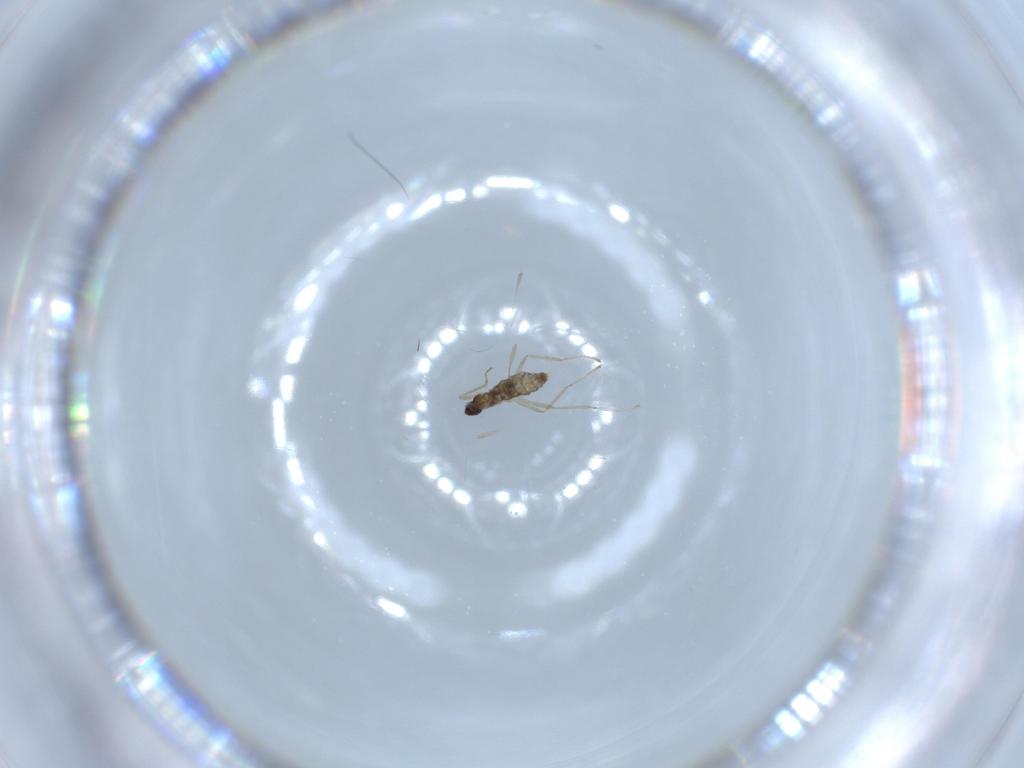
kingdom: Animalia
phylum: Arthropoda
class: Insecta
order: Diptera
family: Cecidomyiidae
